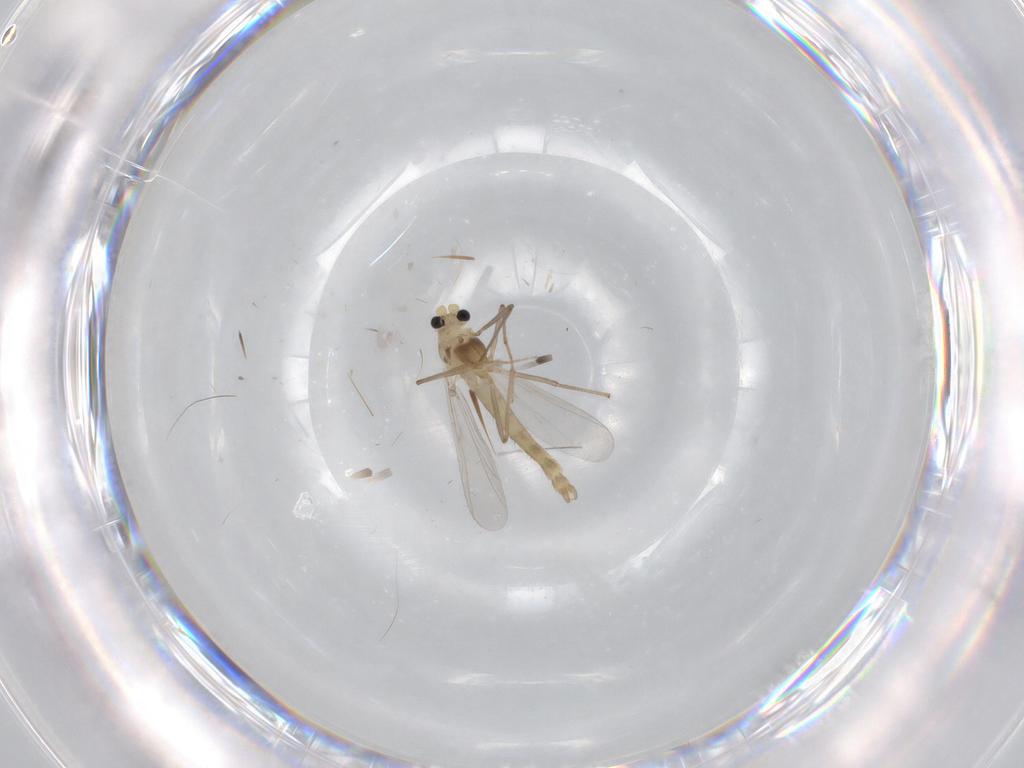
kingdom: Animalia
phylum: Arthropoda
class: Insecta
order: Diptera
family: Chironomidae
